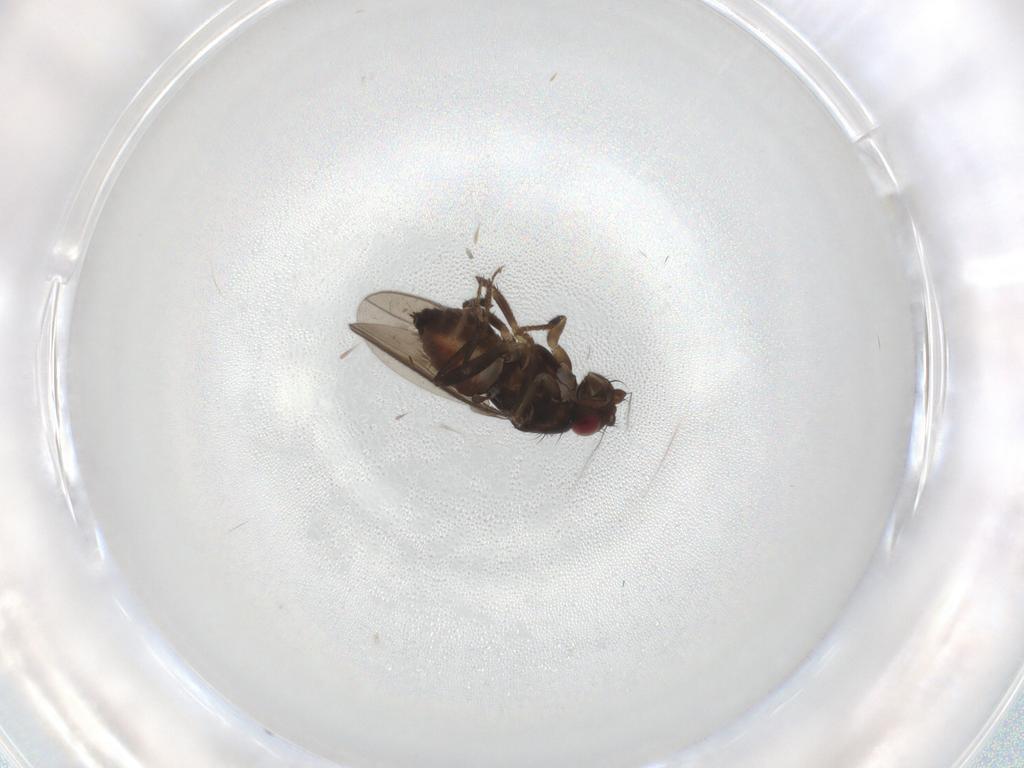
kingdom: Animalia
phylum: Arthropoda
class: Insecta
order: Diptera
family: Sphaeroceridae
